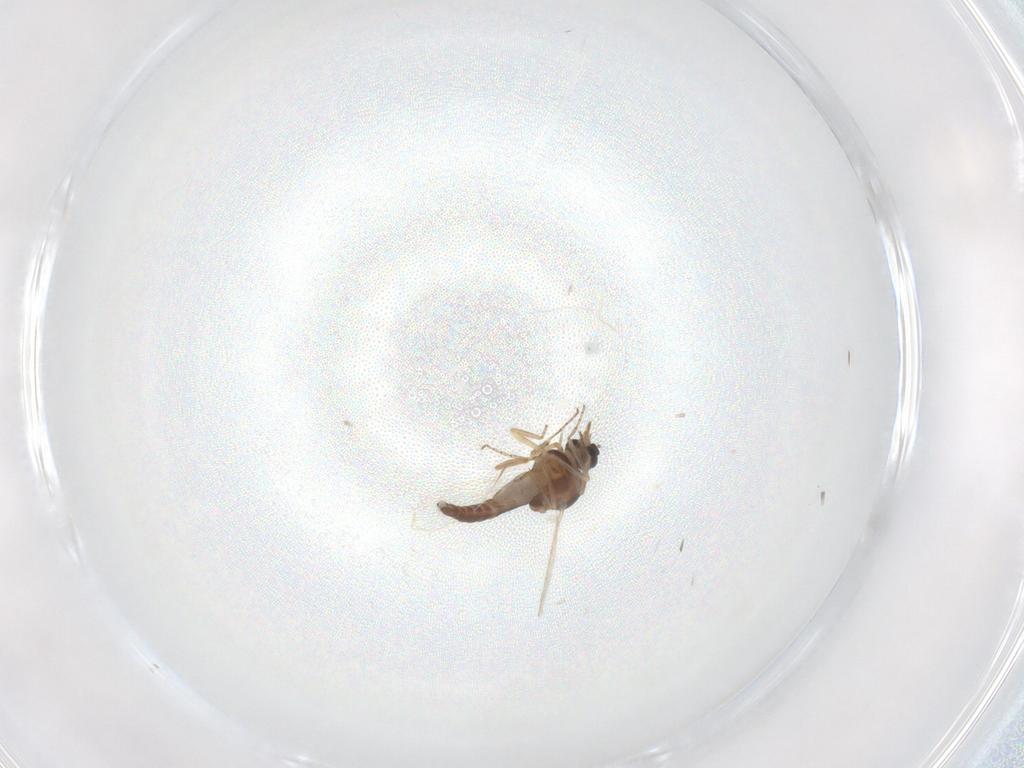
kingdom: Animalia
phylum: Arthropoda
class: Insecta
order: Diptera
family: Ceratopogonidae
